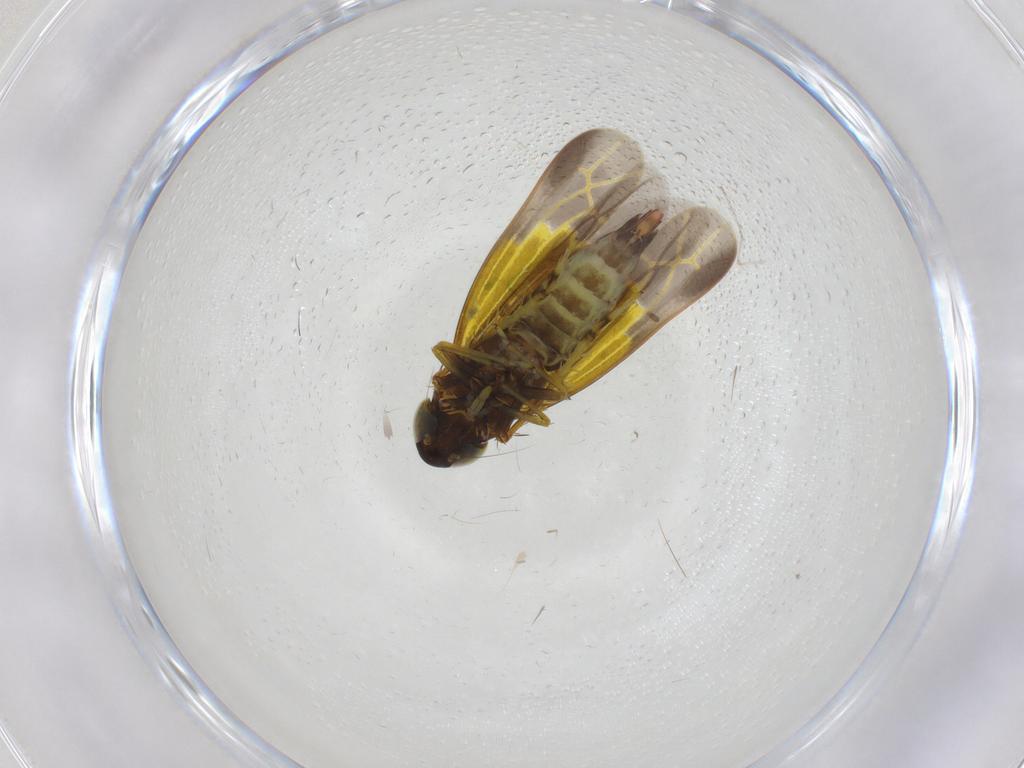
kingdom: Animalia
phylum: Arthropoda
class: Insecta
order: Hemiptera
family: Cicadellidae
